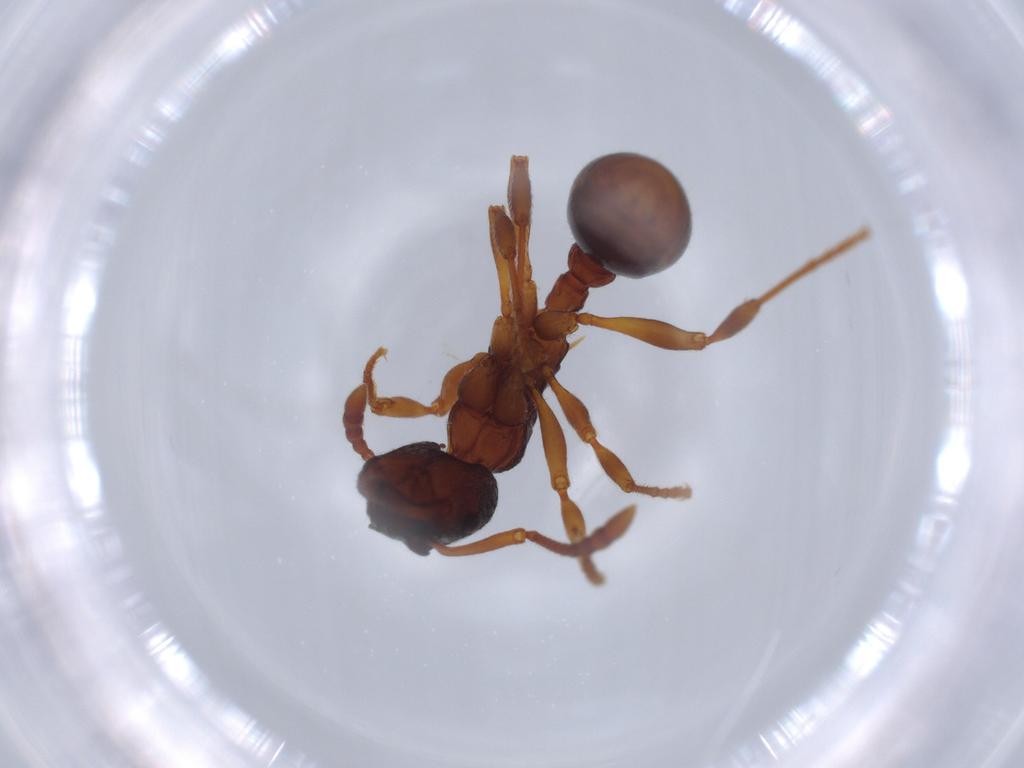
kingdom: Animalia
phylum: Arthropoda
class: Insecta
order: Hymenoptera
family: Formicidae
